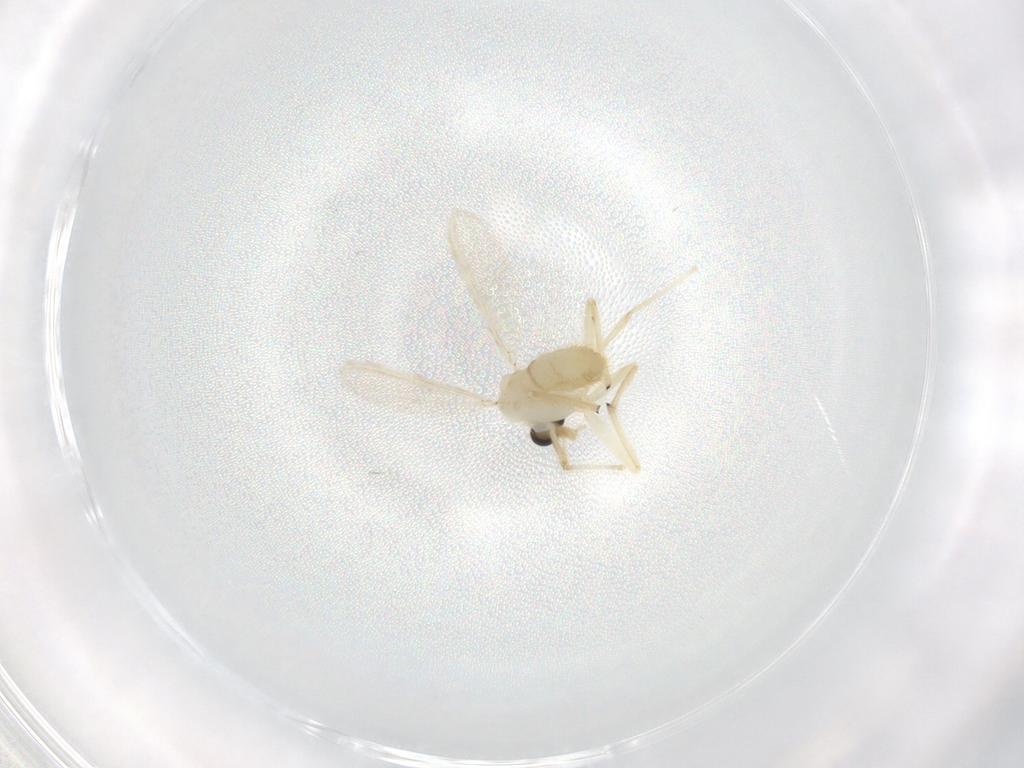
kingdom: Animalia
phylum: Arthropoda
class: Insecta
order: Diptera
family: Chironomidae
